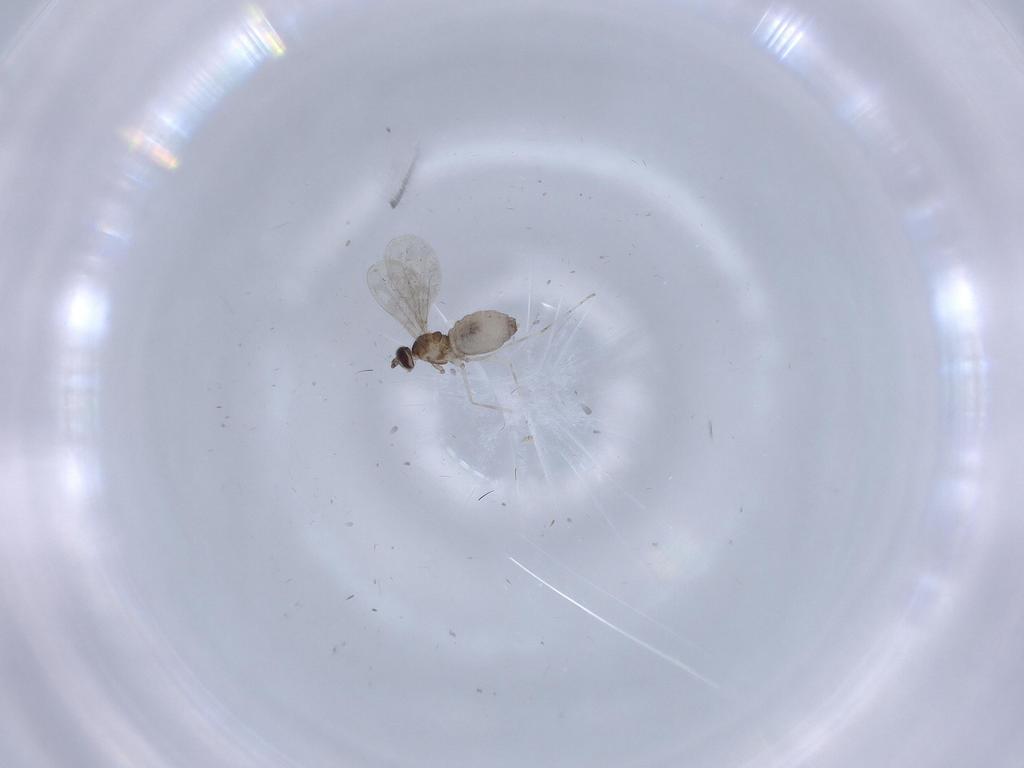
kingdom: Animalia
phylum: Arthropoda
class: Insecta
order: Diptera
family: Cecidomyiidae
